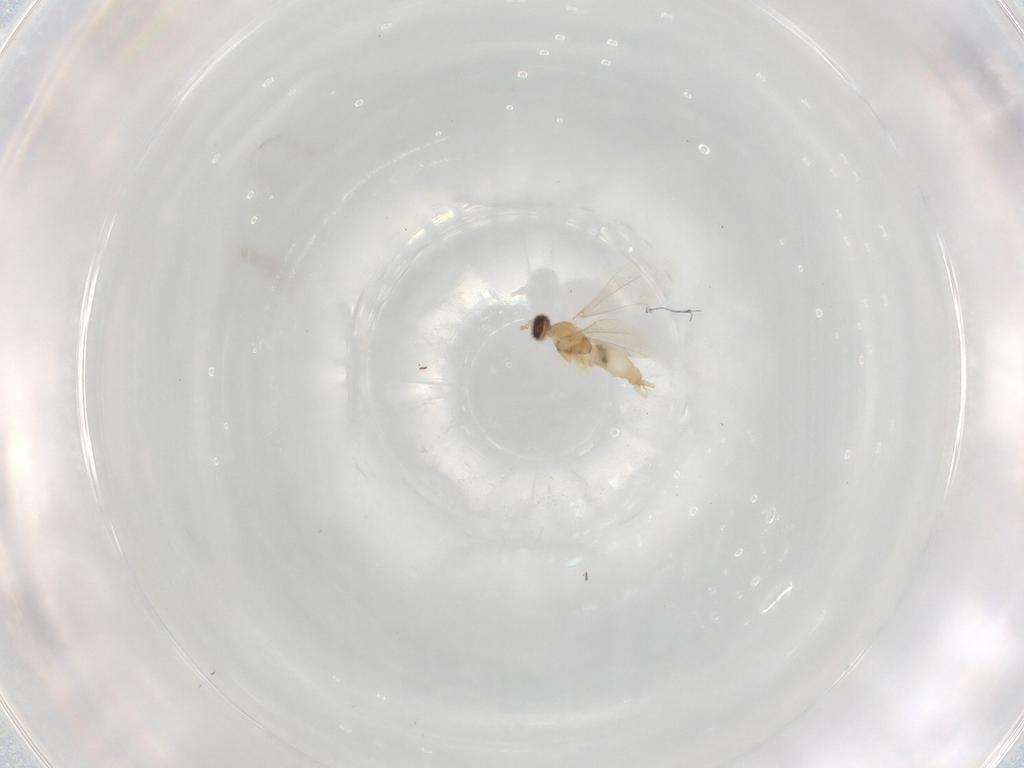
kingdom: Animalia
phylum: Arthropoda
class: Insecta
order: Diptera
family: Cecidomyiidae
